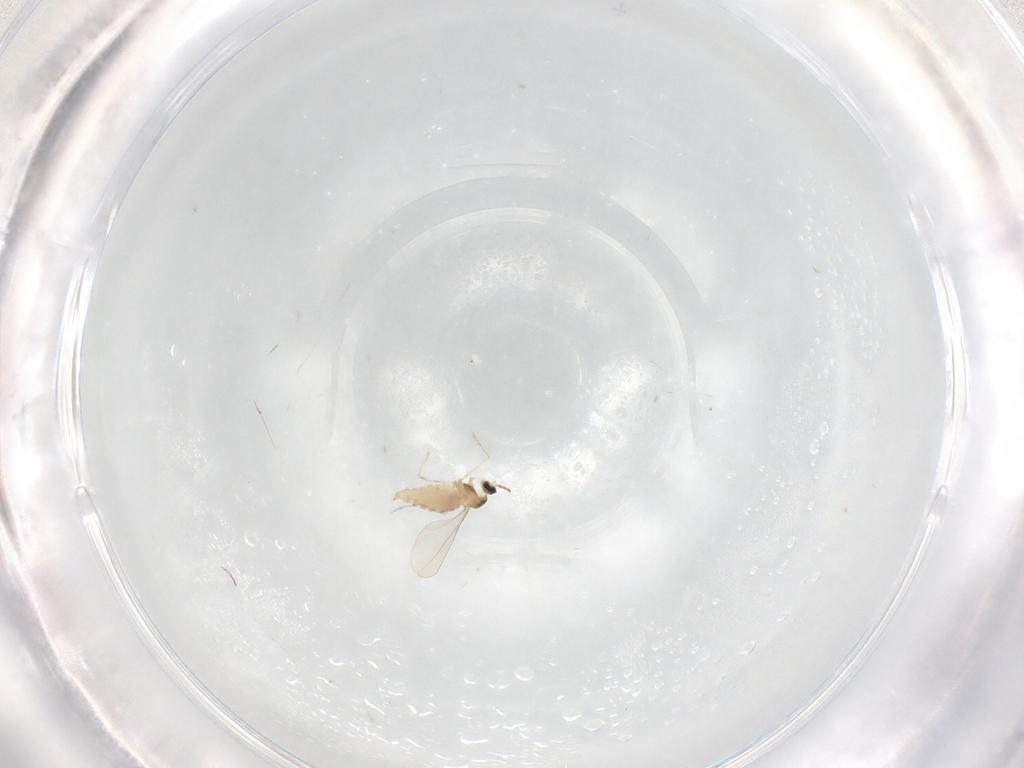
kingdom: Animalia
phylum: Arthropoda
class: Insecta
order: Diptera
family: Cecidomyiidae
